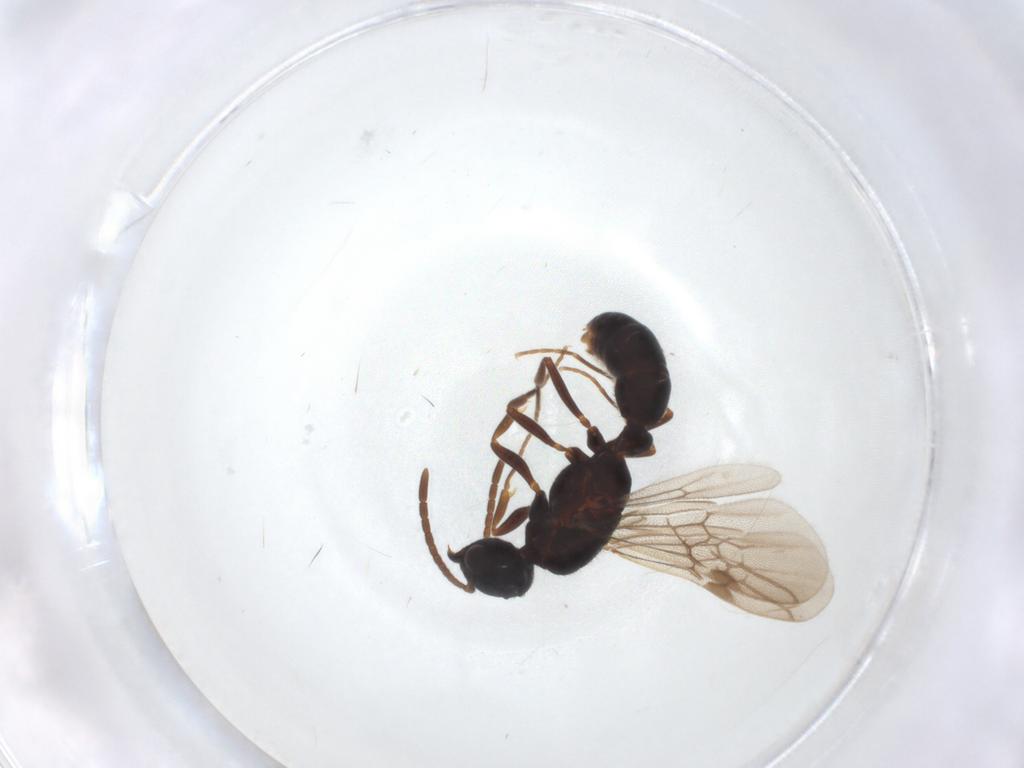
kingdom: Animalia
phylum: Arthropoda
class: Insecta
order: Hymenoptera
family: Formicidae
